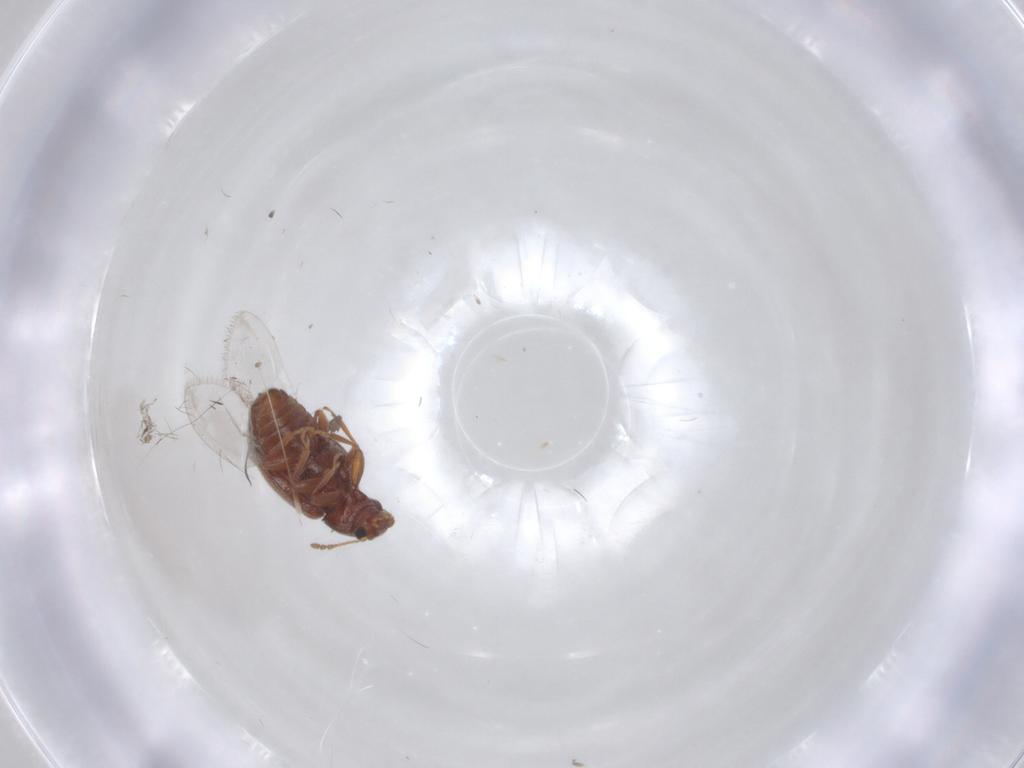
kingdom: Animalia
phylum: Arthropoda
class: Insecta
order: Coleoptera
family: Latridiidae
